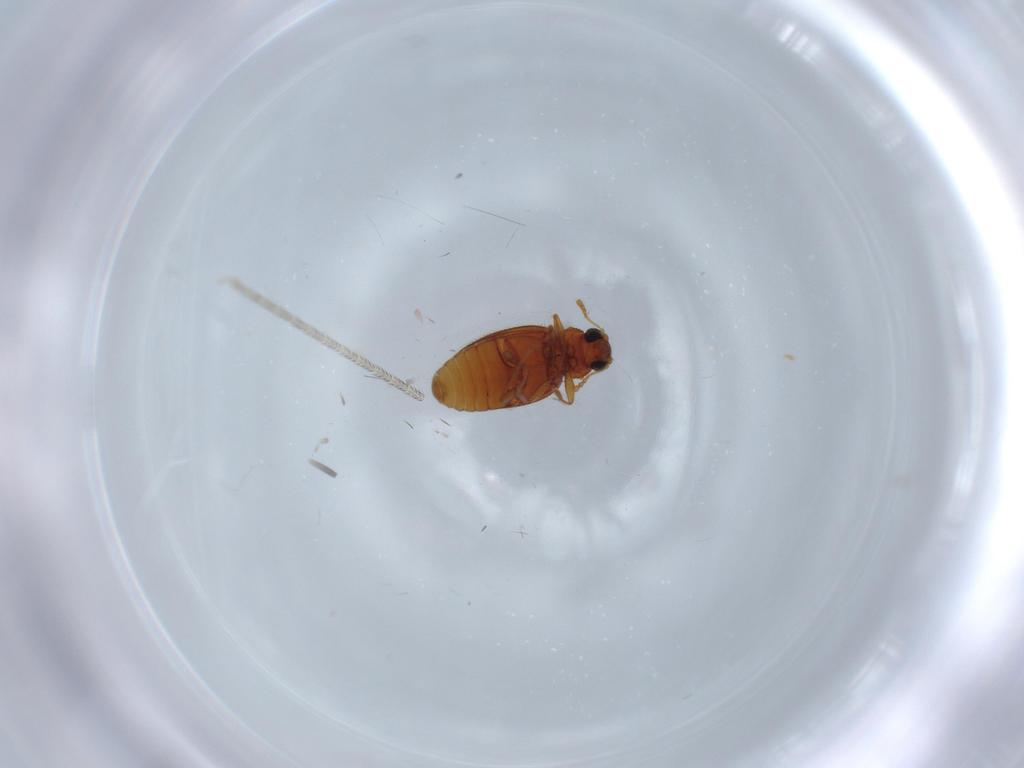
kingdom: Animalia
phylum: Arthropoda
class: Insecta
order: Coleoptera
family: Latridiidae
